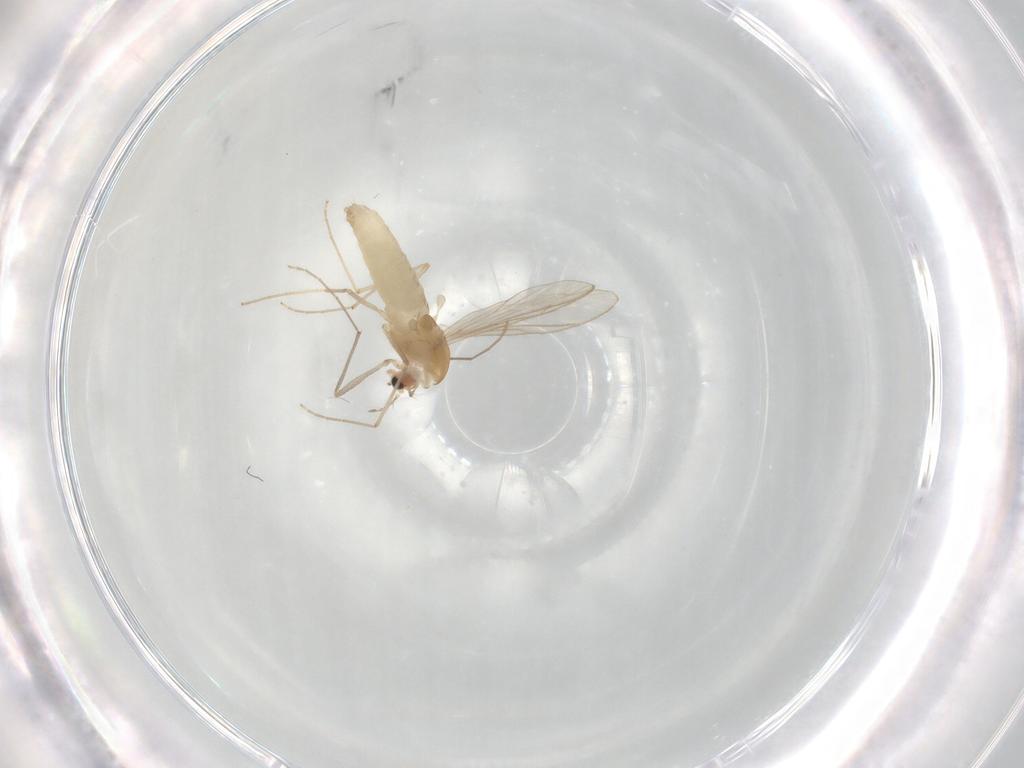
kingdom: Animalia
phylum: Arthropoda
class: Insecta
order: Diptera
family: Chironomidae
